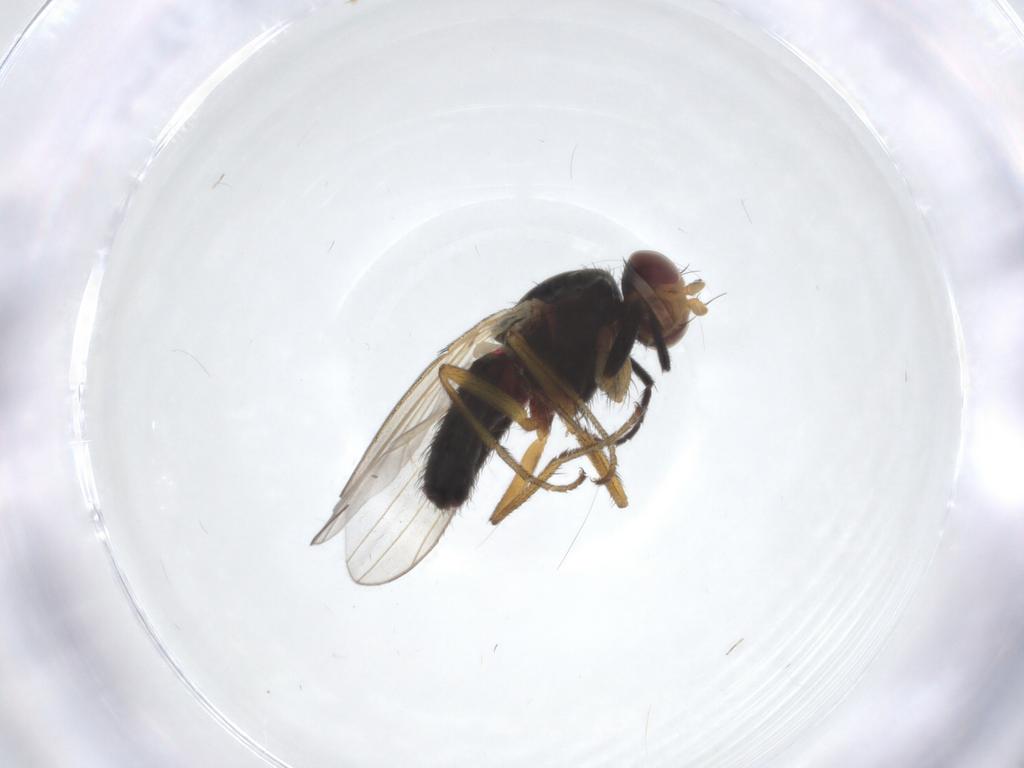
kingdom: Animalia
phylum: Arthropoda
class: Insecta
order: Diptera
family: Heleomyzidae
